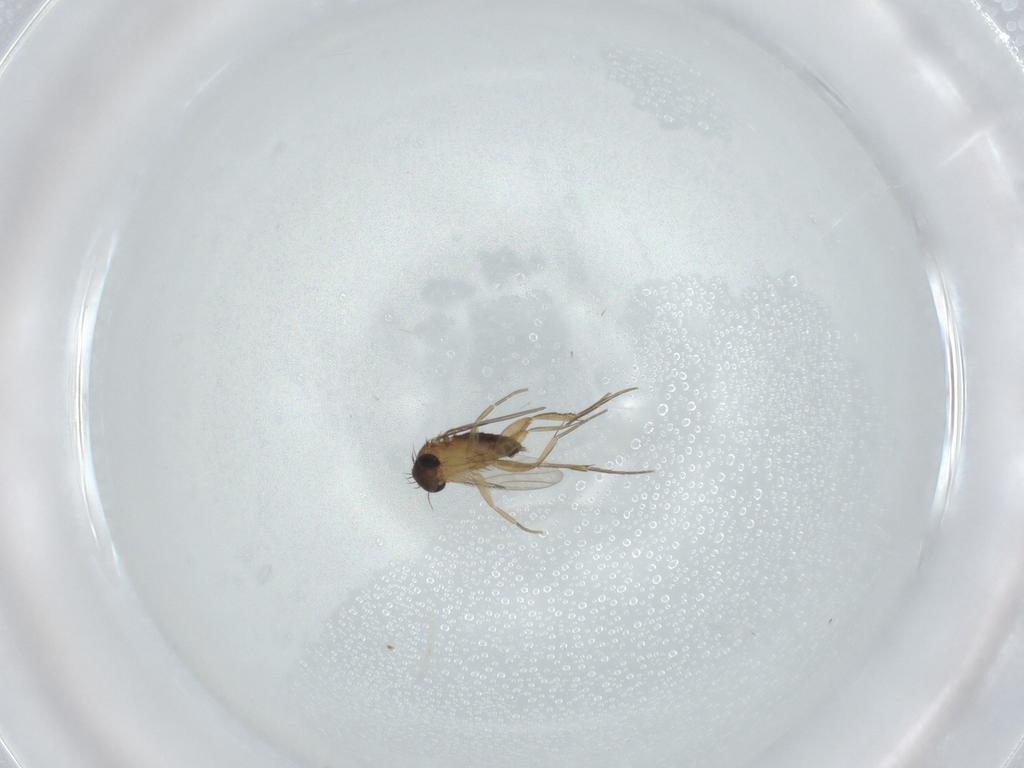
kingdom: Animalia
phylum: Arthropoda
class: Insecta
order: Diptera
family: Phoridae
